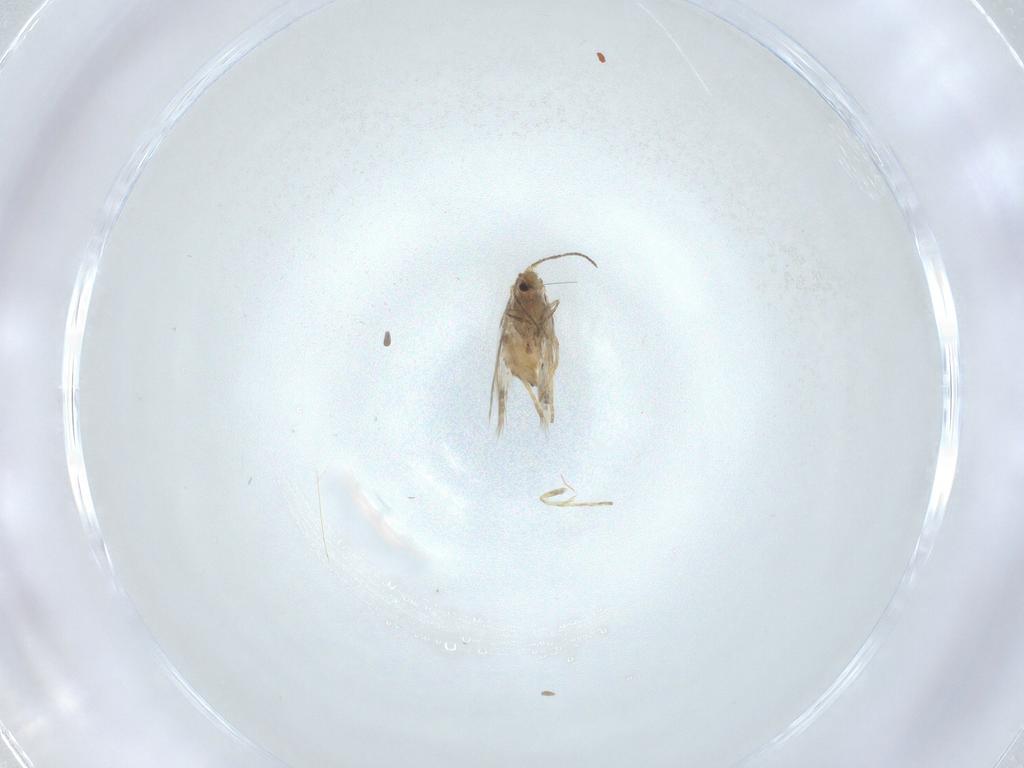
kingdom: Animalia
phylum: Arthropoda
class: Insecta
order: Lepidoptera
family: Nepticulidae
